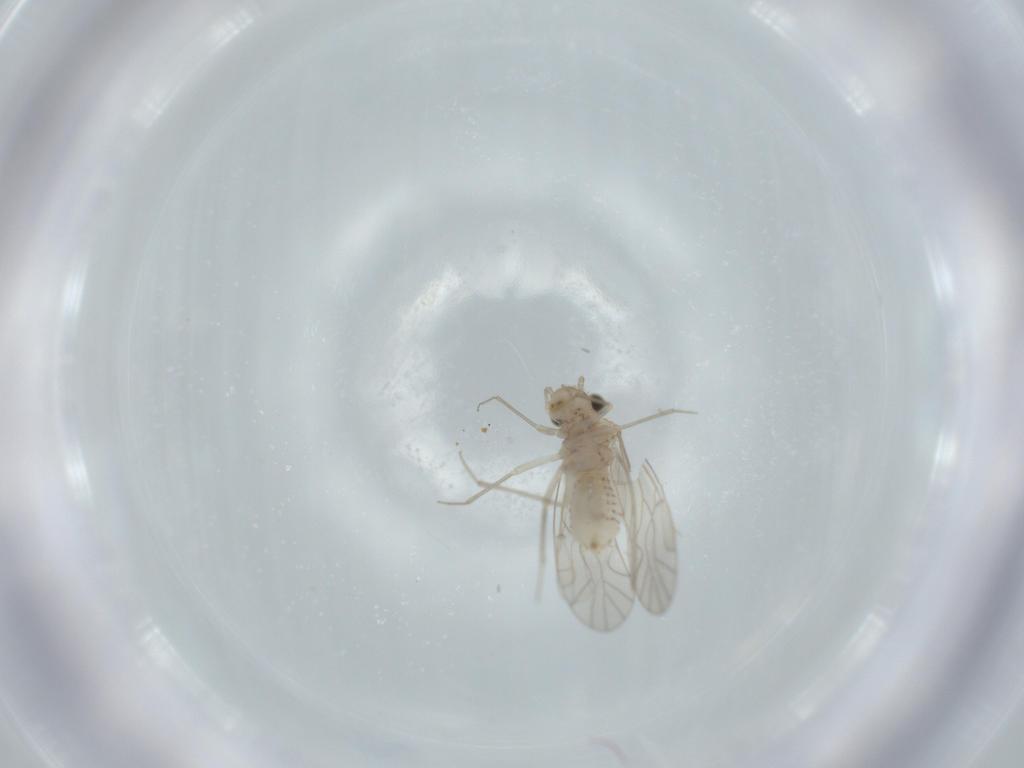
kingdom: Animalia
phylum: Arthropoda
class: Insecta
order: Psocodea
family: Lachesillidae
